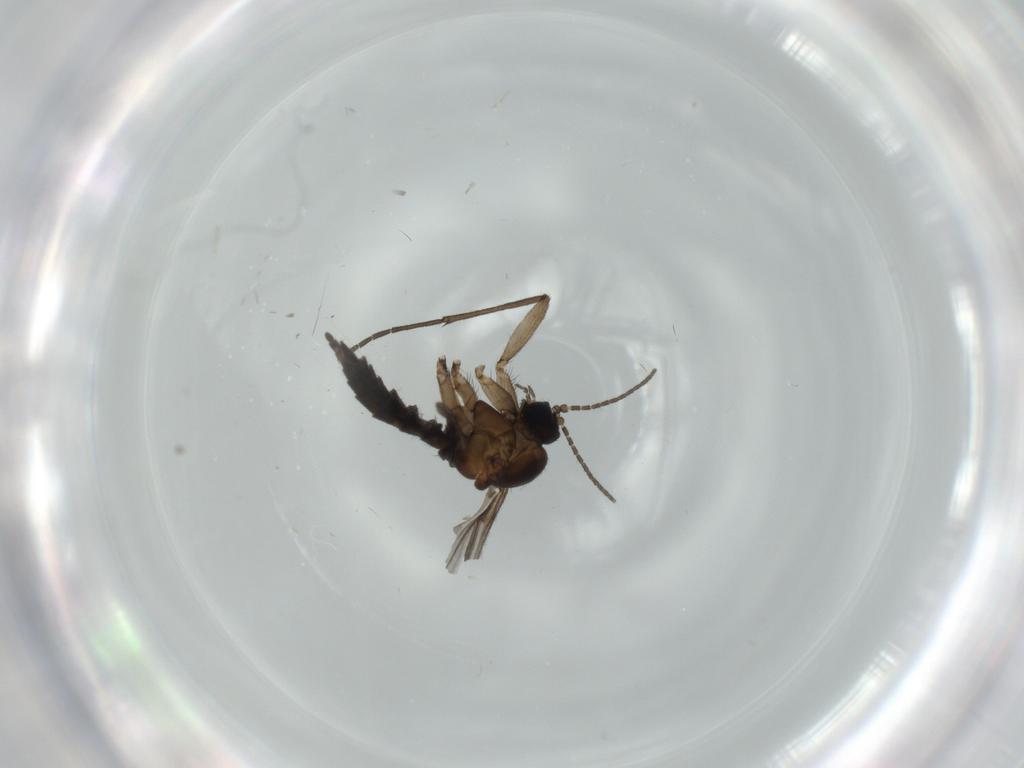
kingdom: Animalia
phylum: Arthropoda
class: Insecta
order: Diptera
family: Sciaridae
